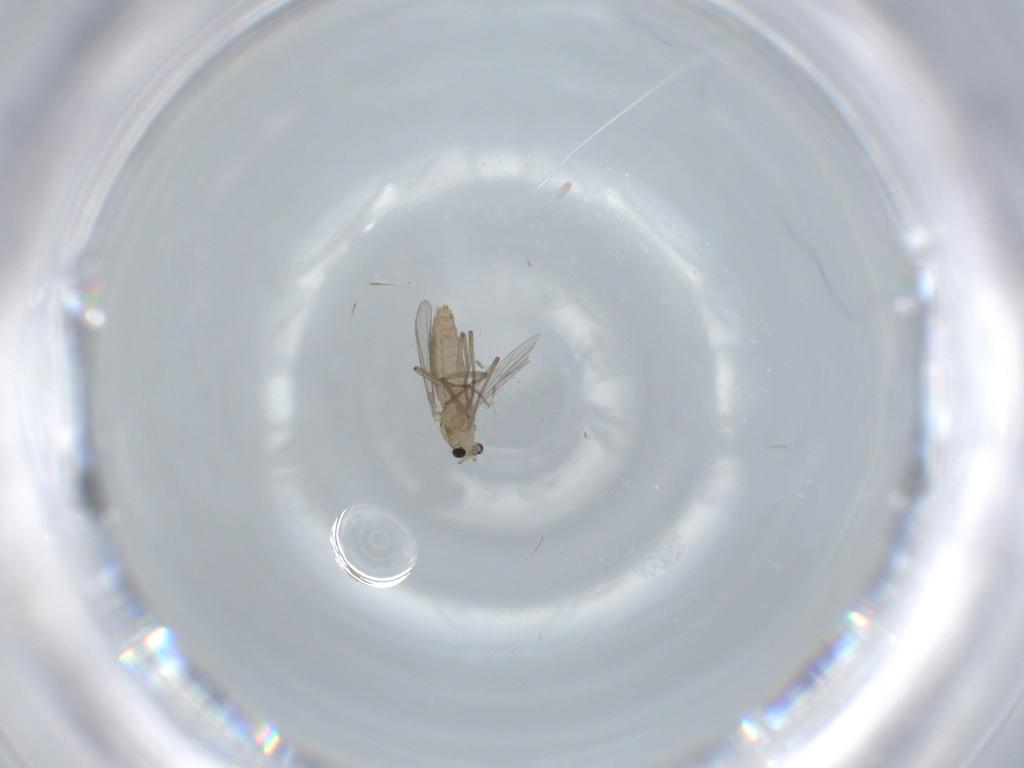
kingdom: Animalia
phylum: Arthropoda
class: Insecta
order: Diptera
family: Chironomidae
